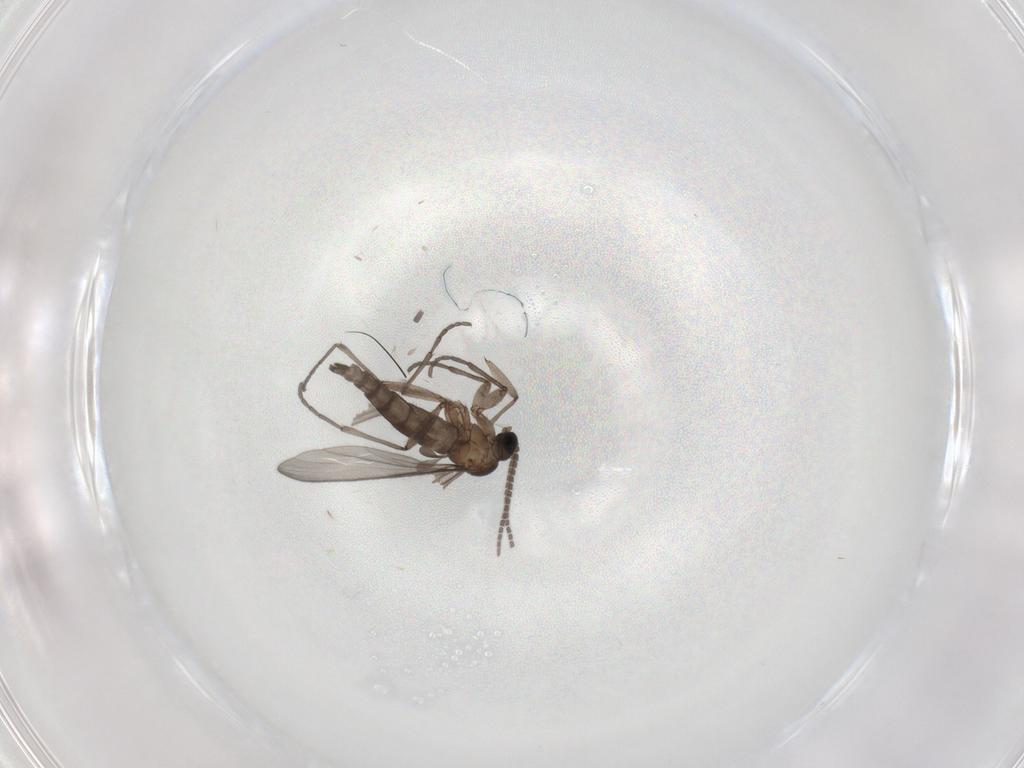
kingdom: Animalia
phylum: Arthropoda
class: Insecta
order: Diptera
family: Sciaridae
